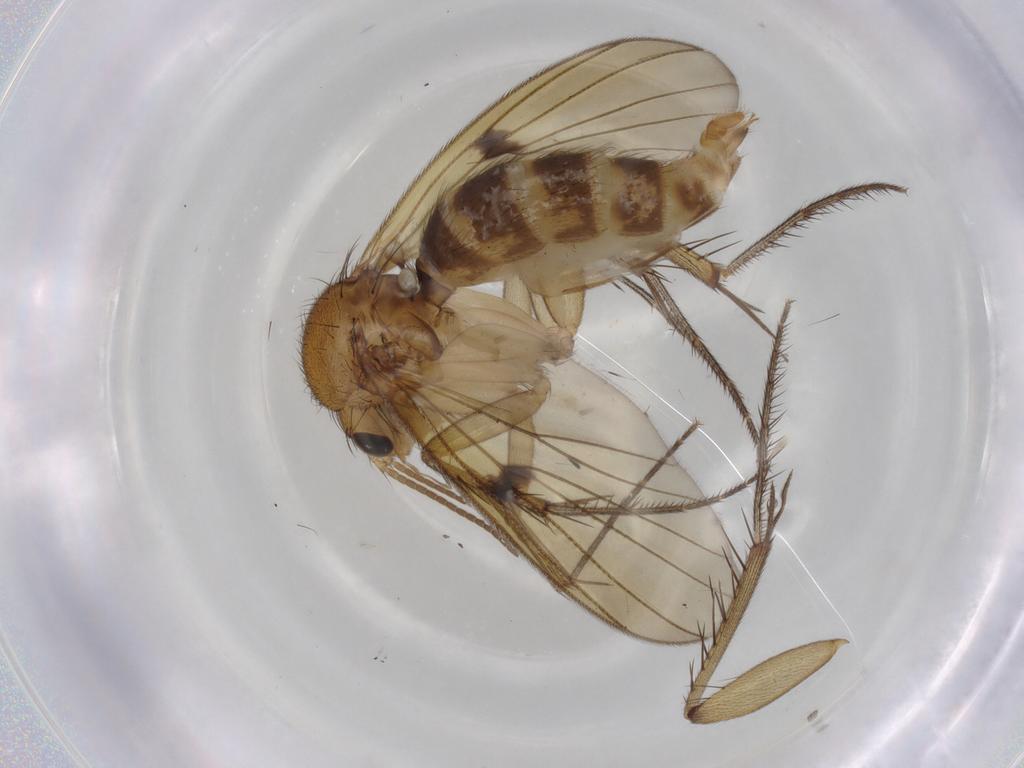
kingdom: Animalia
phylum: Arthropoda
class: Insecta
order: Diptera
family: Mycetophilidae
